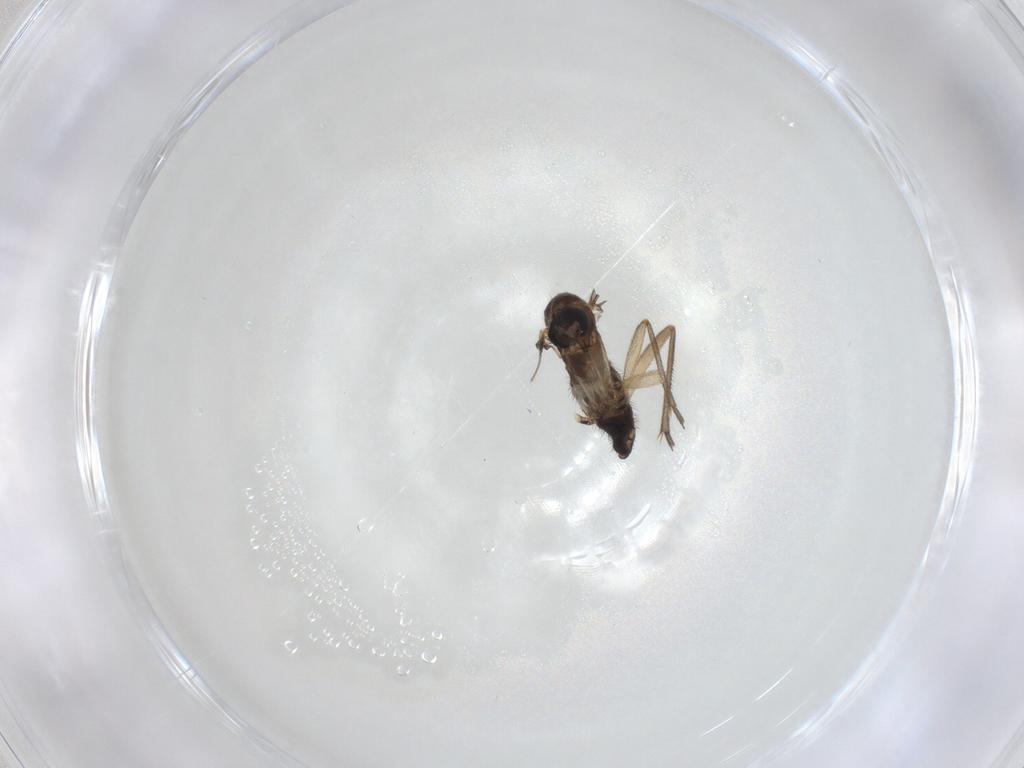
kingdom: Animalia
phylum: Arthropoda
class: Insecta
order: Diptera
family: Sciaridae
